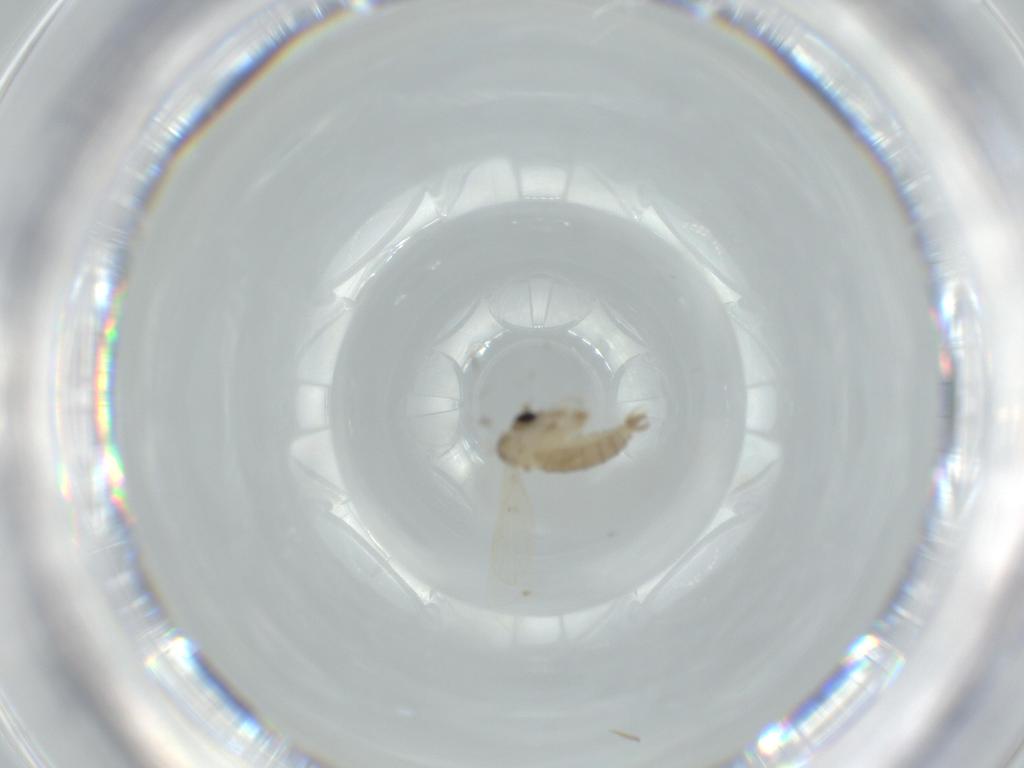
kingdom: Animalia
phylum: Arthropoda
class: Insecta
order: Diptera
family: Psychodidae
